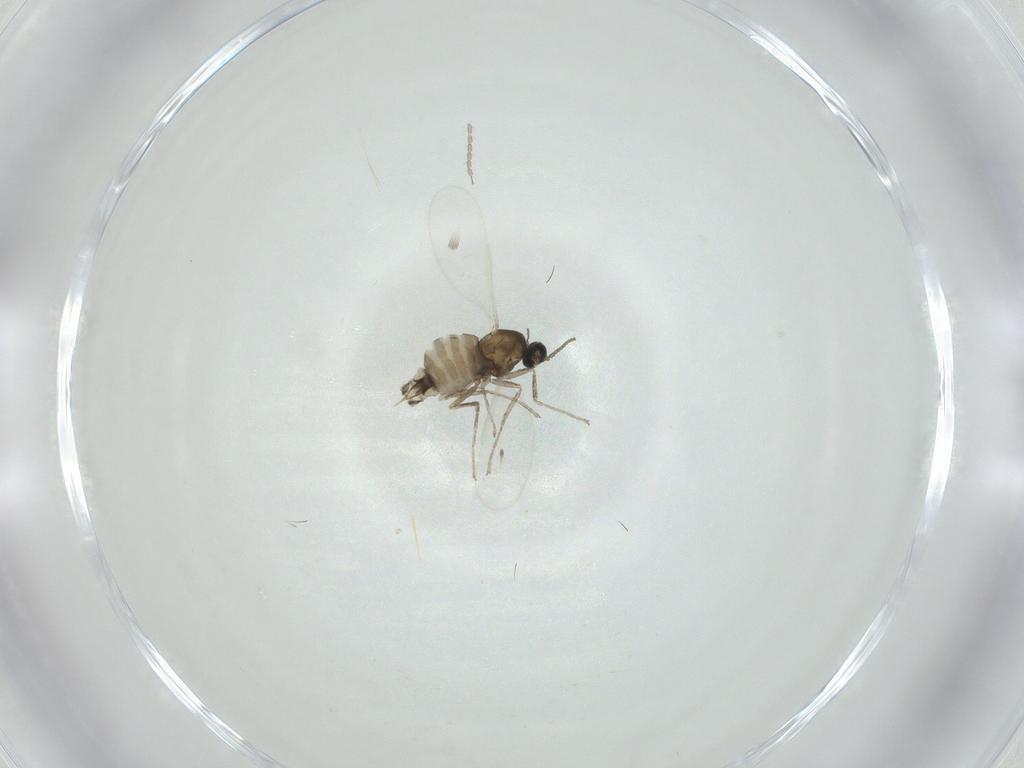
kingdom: Animalia
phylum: Arthropoda
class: Insecta
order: Diptera
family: Cecidomyiidae
